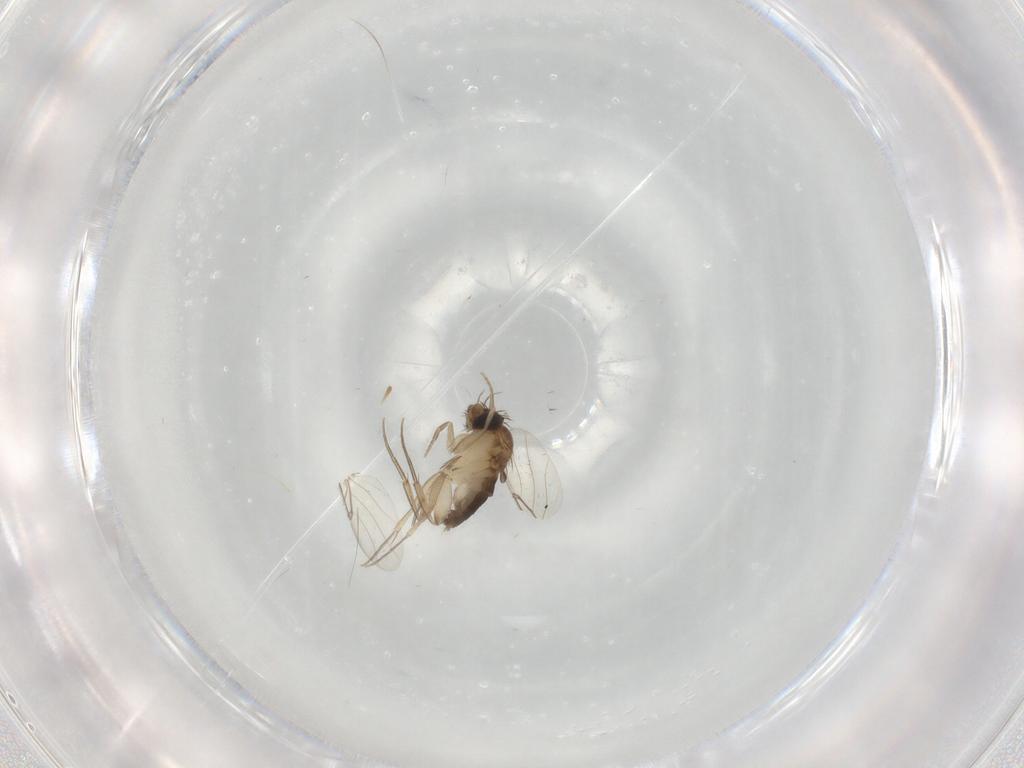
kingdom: Animalia
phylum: Arthropoda
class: Insecta
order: Diptera
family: Phoridae
